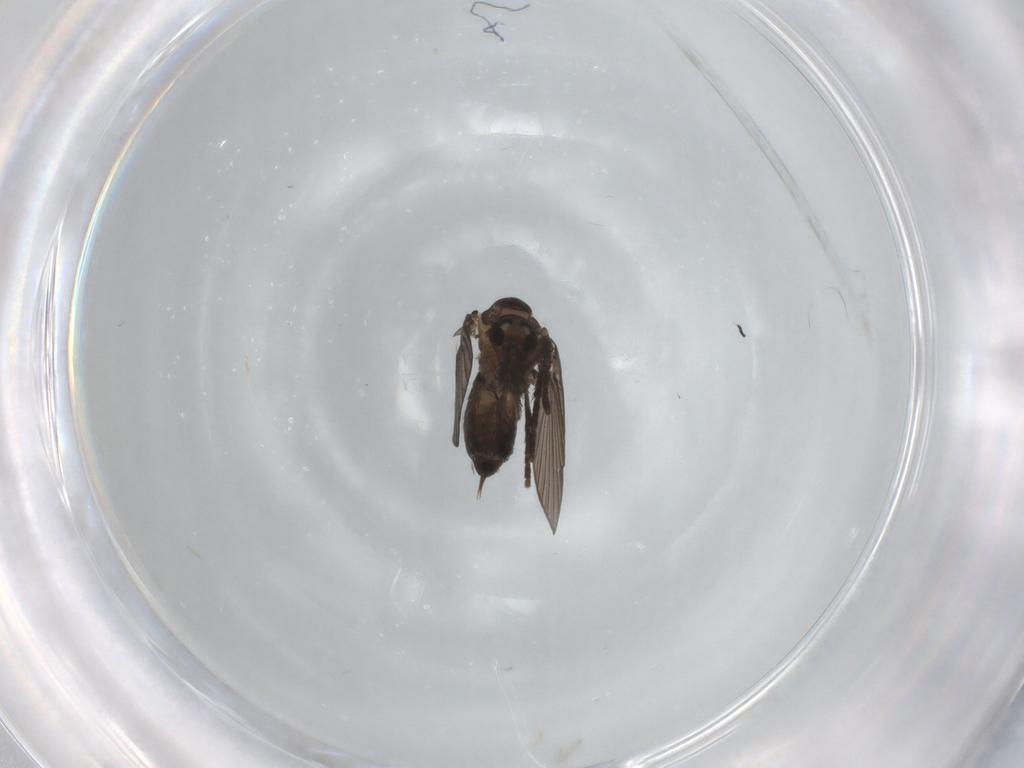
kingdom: Animalia
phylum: Arthropoda
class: Insecta
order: Diptera
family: Milichiidae
